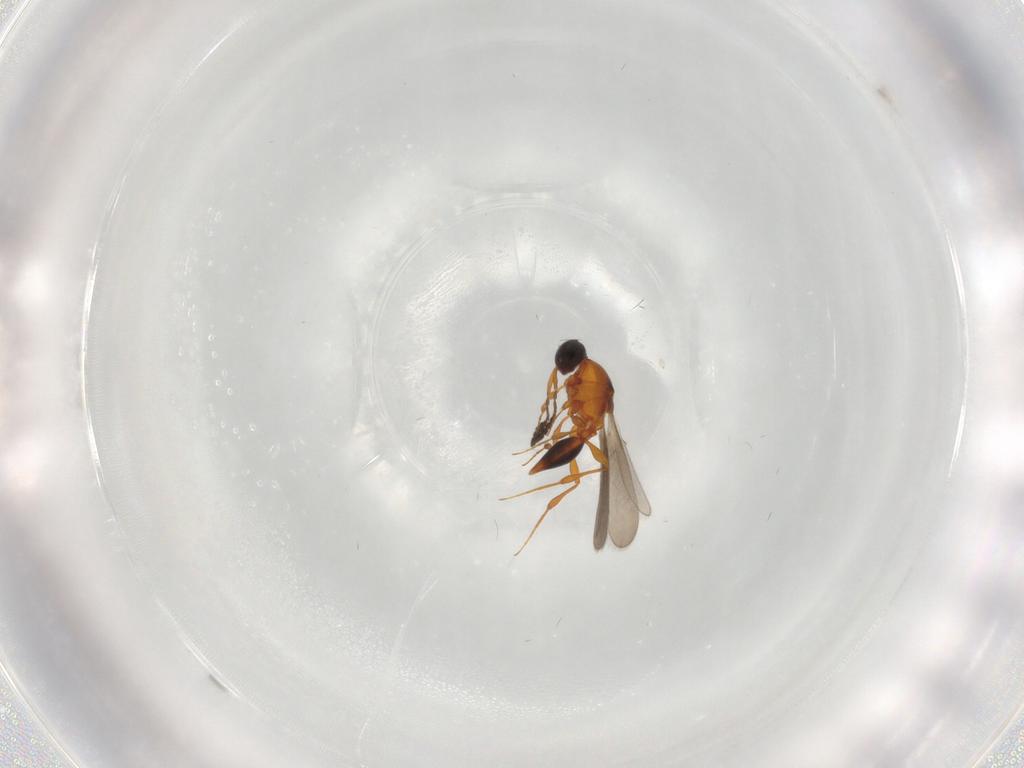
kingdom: Animalia
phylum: Arthropoda
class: Insecta
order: Hymenoptera
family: Platygastridae
